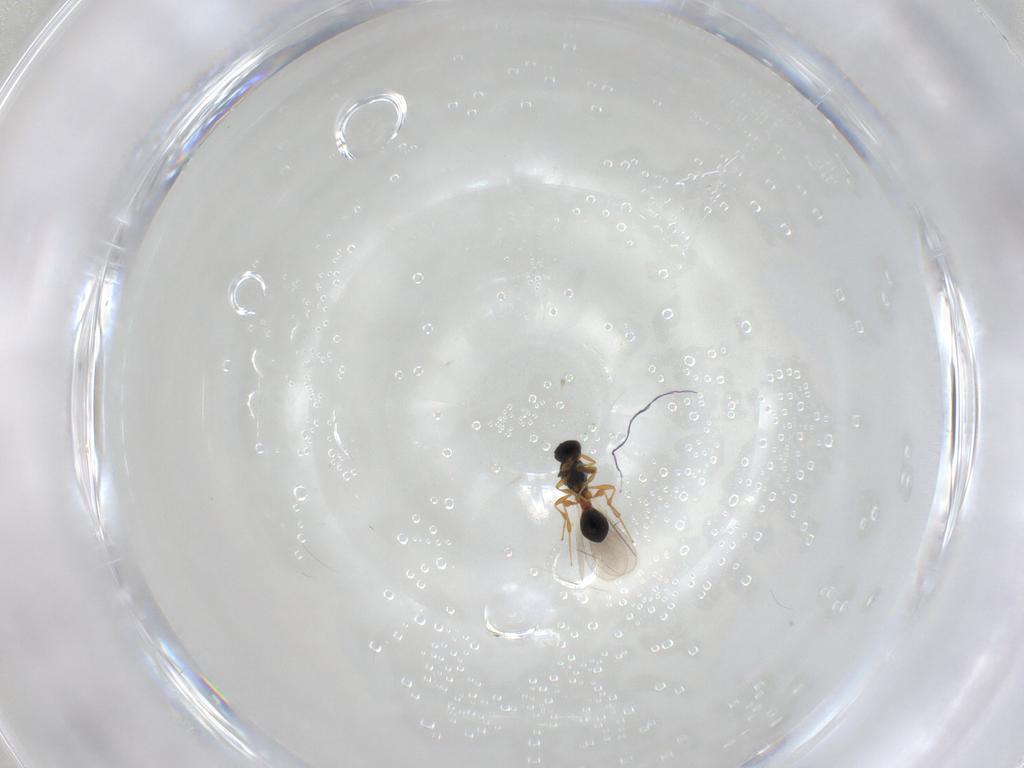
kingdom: Animalia
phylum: Arthropoda
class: Insecta
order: Hymenoptera
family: Platygastridae
